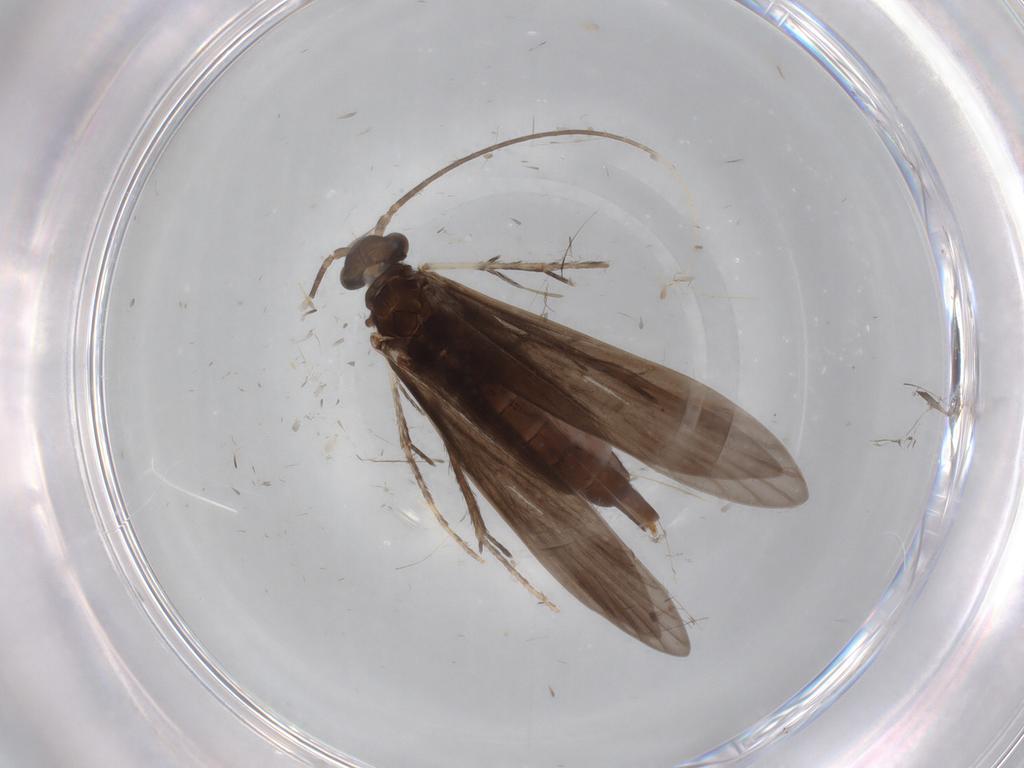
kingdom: Animalia
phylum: Arthropoda
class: Insecta
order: Trichoptera
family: Xiphocentronidae
